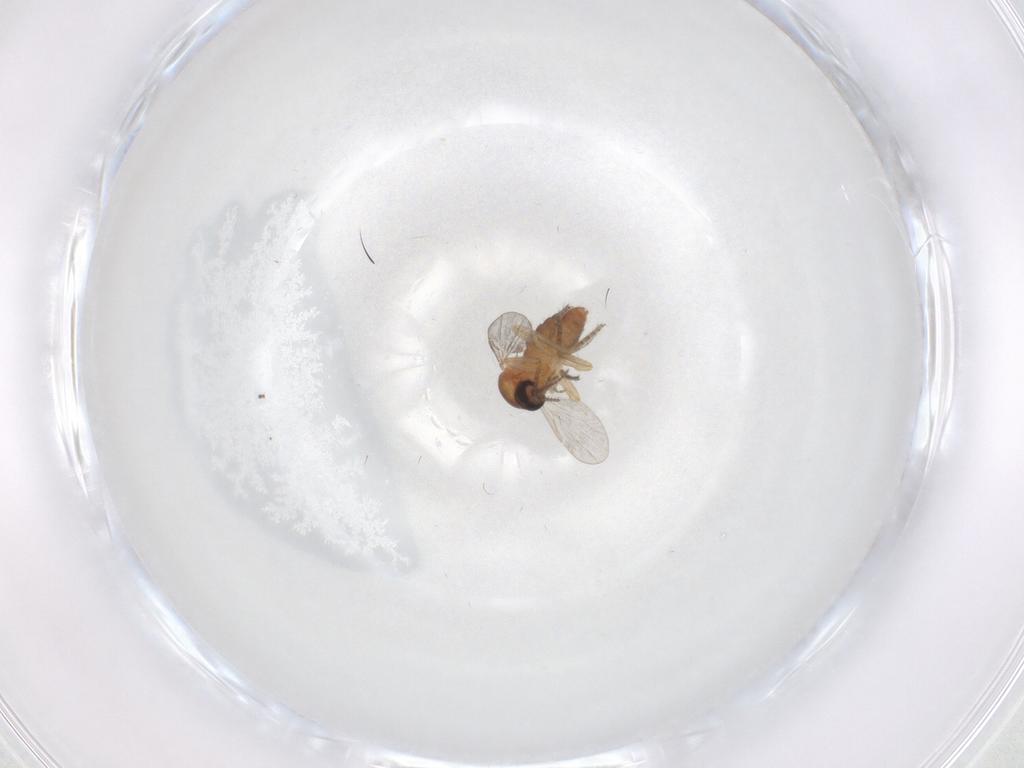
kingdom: Animalia
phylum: Arthropoda
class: Insecta
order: Diptera
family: Ceratopogonidae
